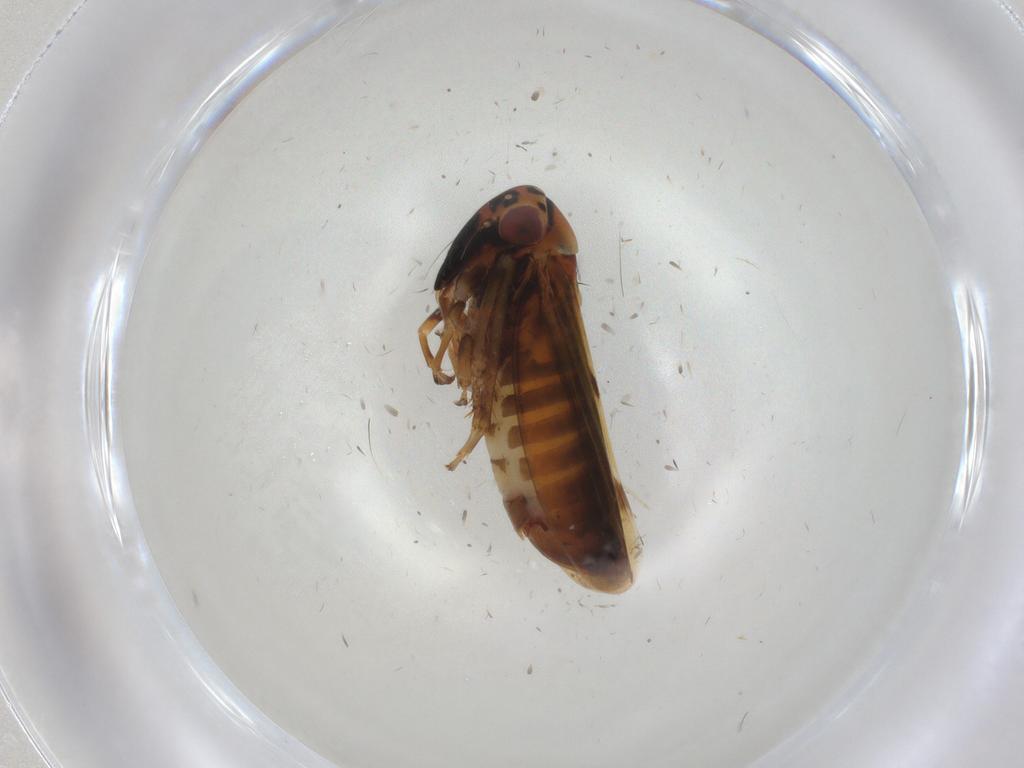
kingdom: Animalia
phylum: Arthropoda
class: Insecta
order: Hemiptera
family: Cicadellidae
